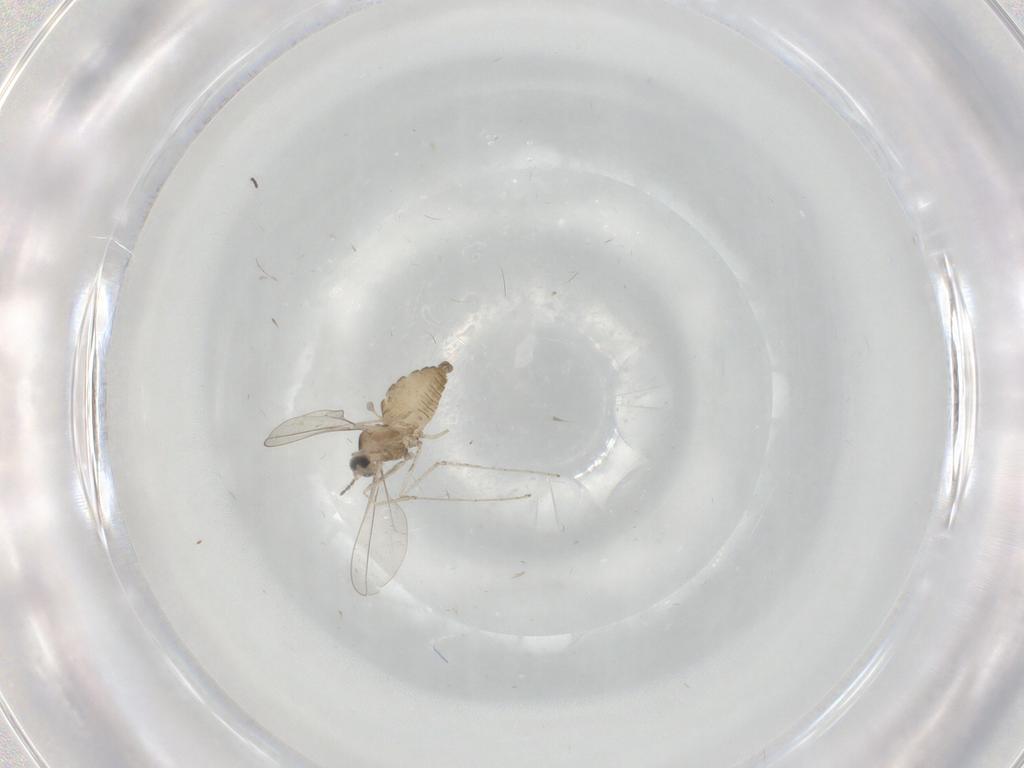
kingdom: Animalia
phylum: Arthropoda
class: Insecta
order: Diptera
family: Cecidomyiidae
